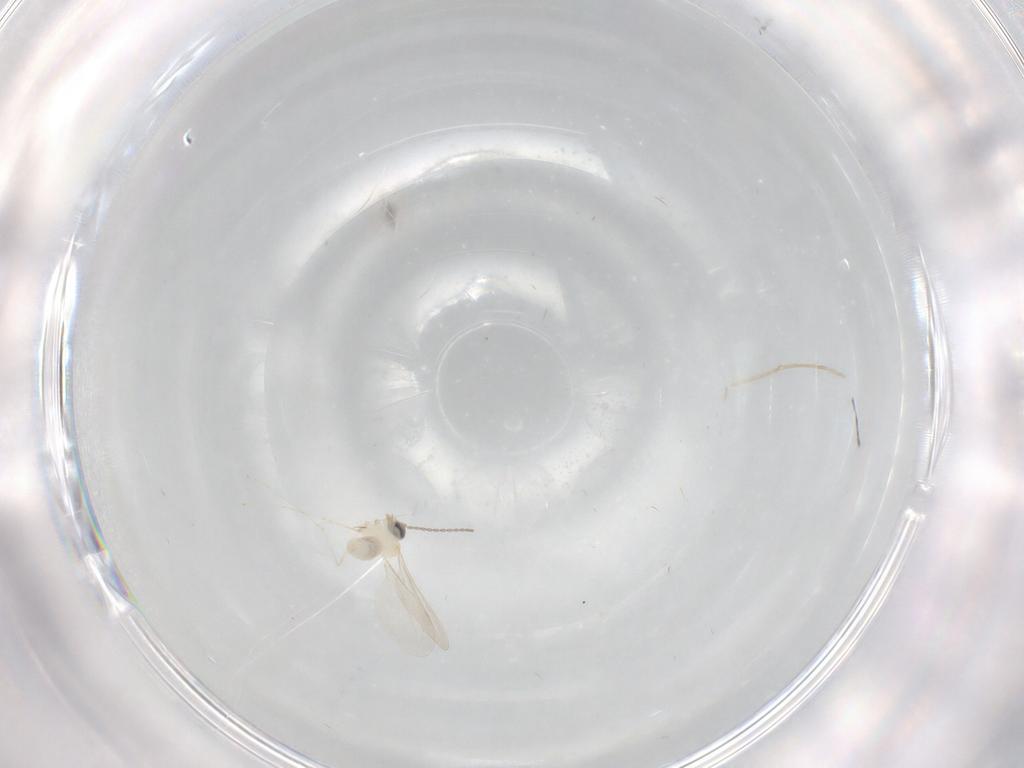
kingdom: Animalia
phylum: Arthropoda
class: Insecta
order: Diptera
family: Cecidomyiidae
